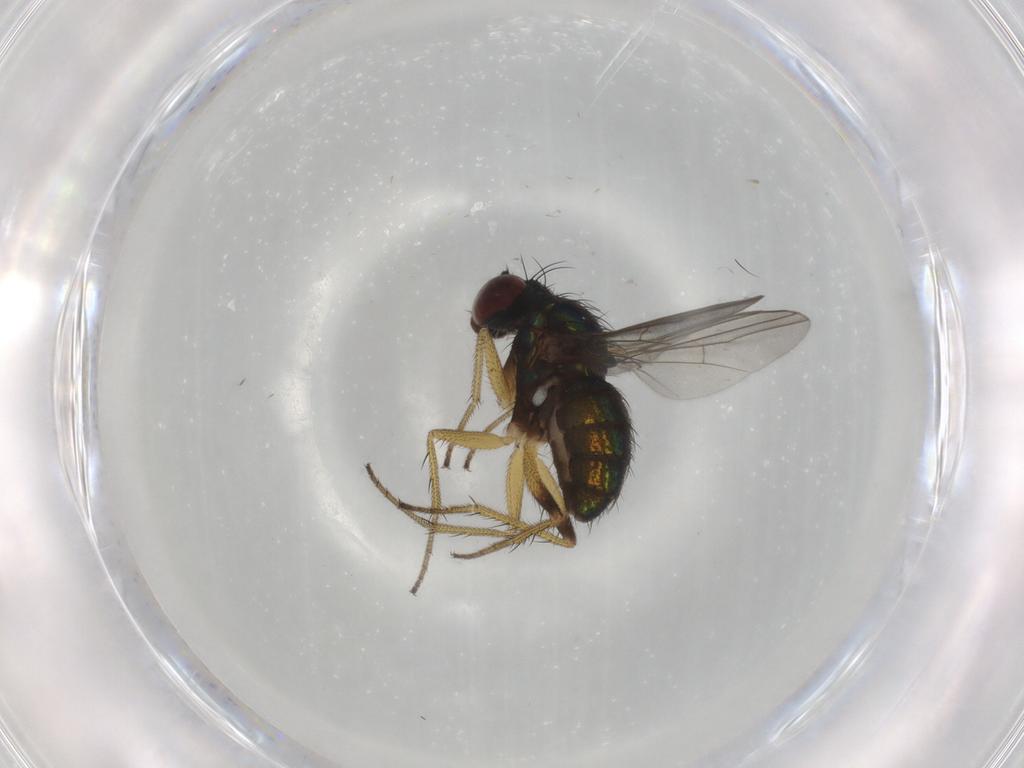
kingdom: Animalia
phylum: Arthropoda
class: Insecta
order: Diptera
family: Dolichopodidae
